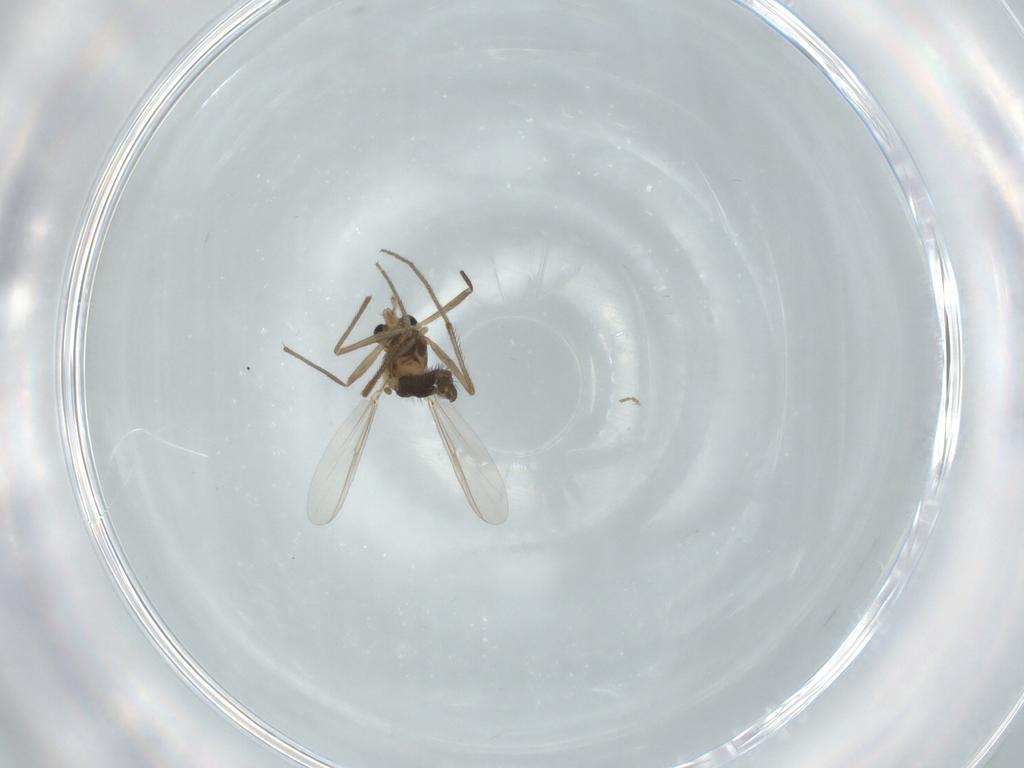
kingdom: Animalia
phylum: Arthropoda
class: Insecta
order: Diptera
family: Chironomidae
